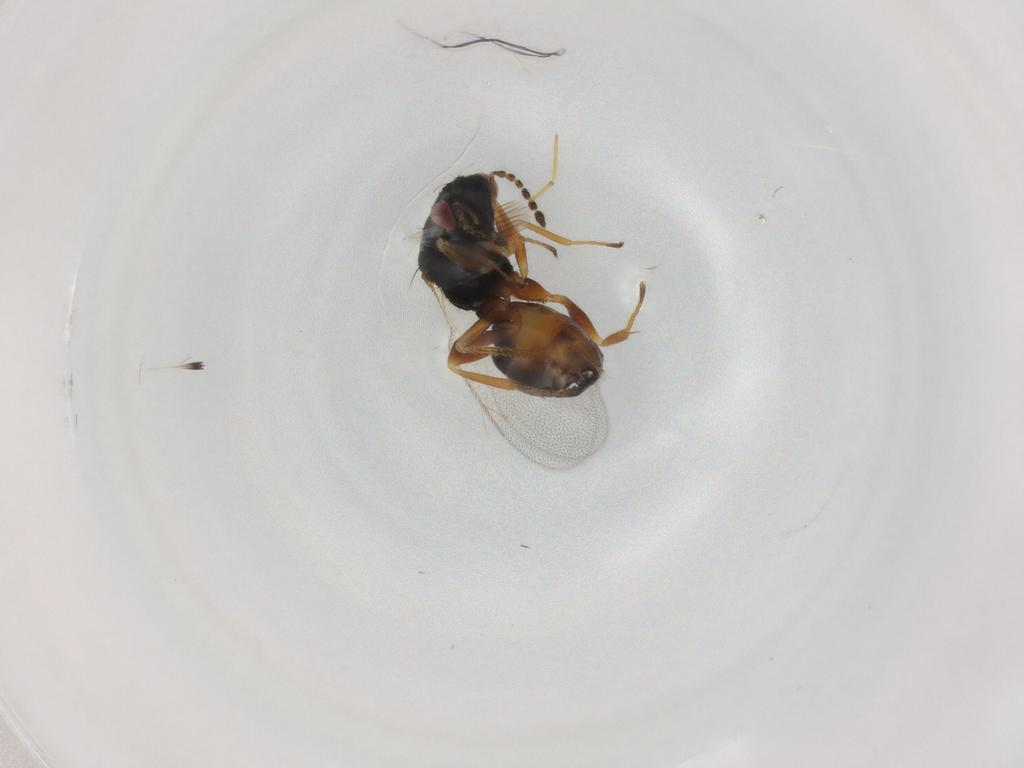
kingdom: Animalia
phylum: Arthropoda
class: Insecta
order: Hymenoptera
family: Eulophidae
